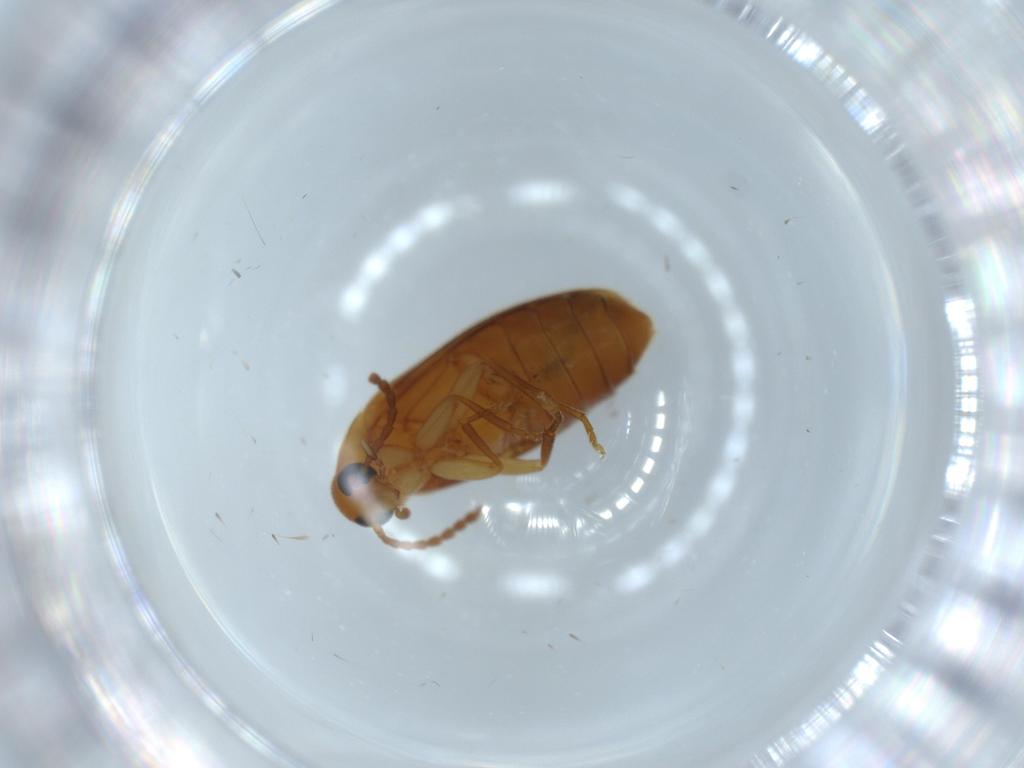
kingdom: Animalia
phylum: Arthropoda
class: Insecta
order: Coleoptera
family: Scraptiidae
